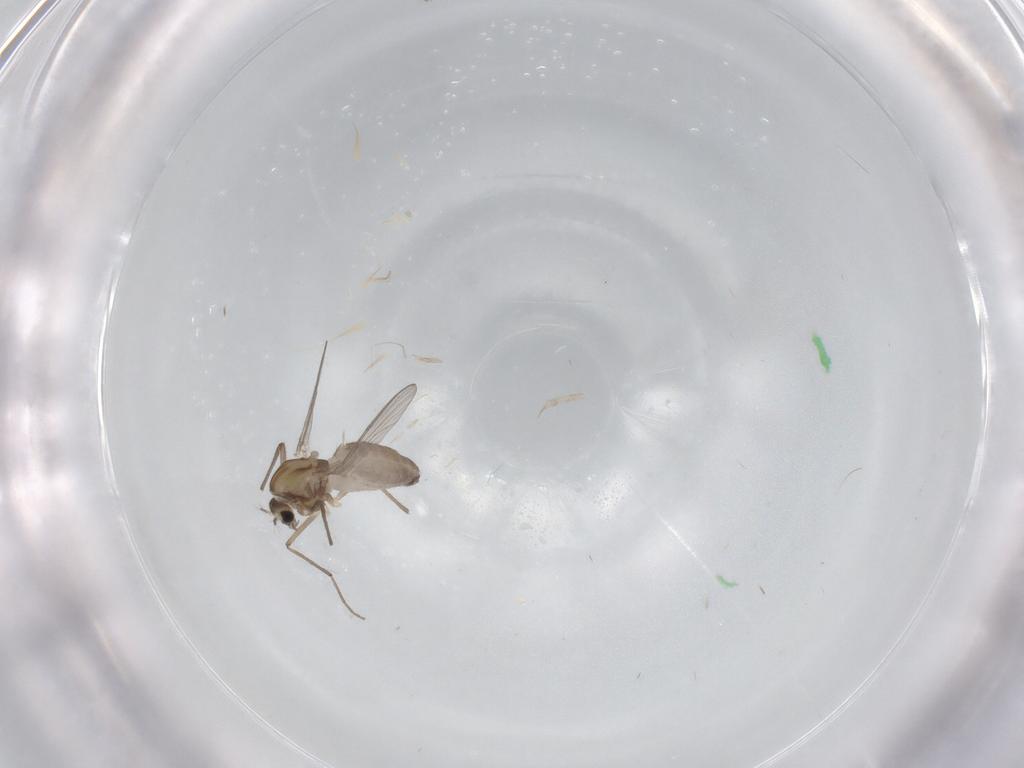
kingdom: Animalia
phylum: Arthropoda
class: Insecta
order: Diptera
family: Chironomidae
